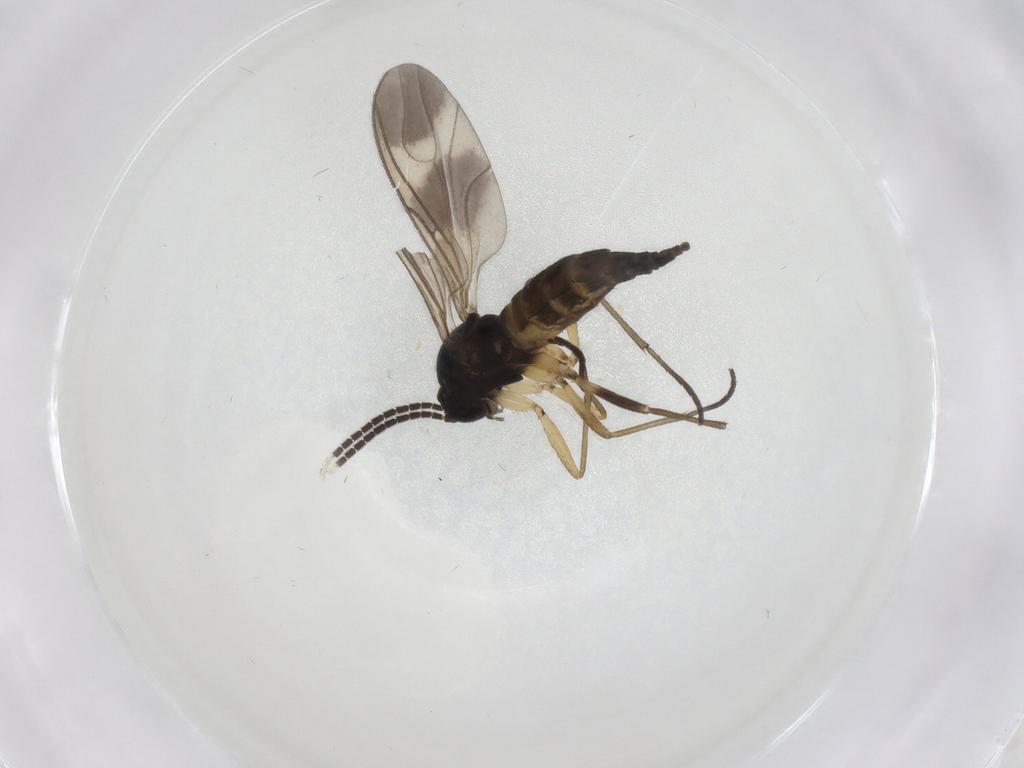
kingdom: Animalia
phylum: Arthropoda
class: Insecta
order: Diptera
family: Sciaridae
